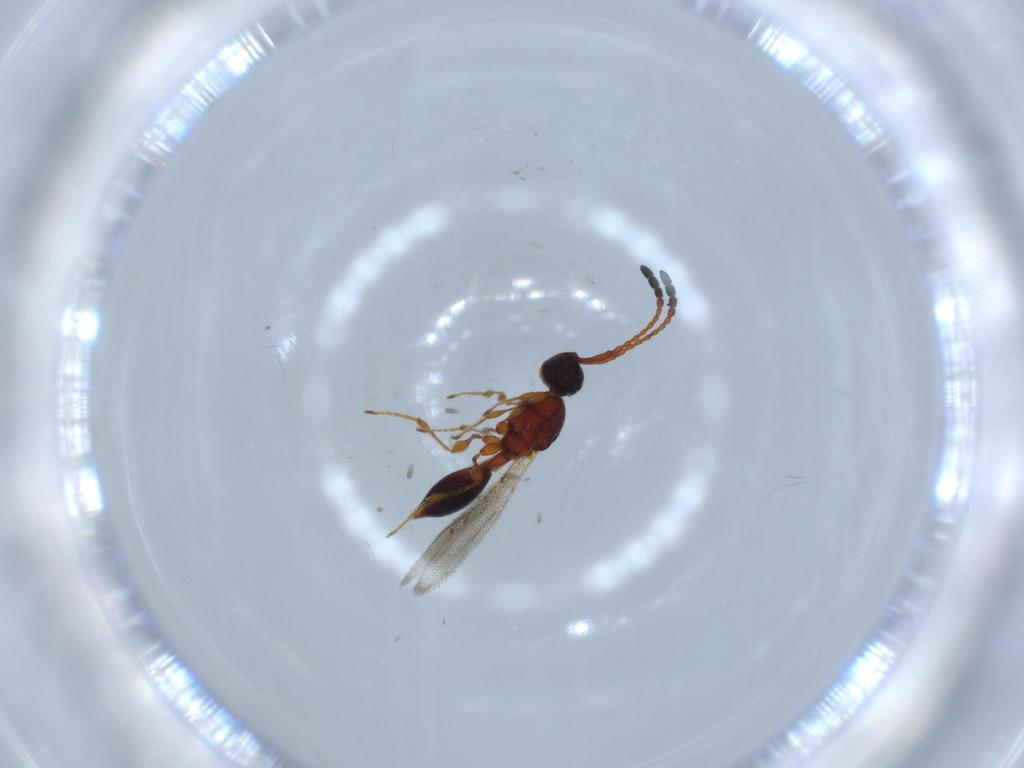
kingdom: Animalia
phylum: Arthropoda
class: Insecta
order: Hymenoptera
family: Diapriidae
